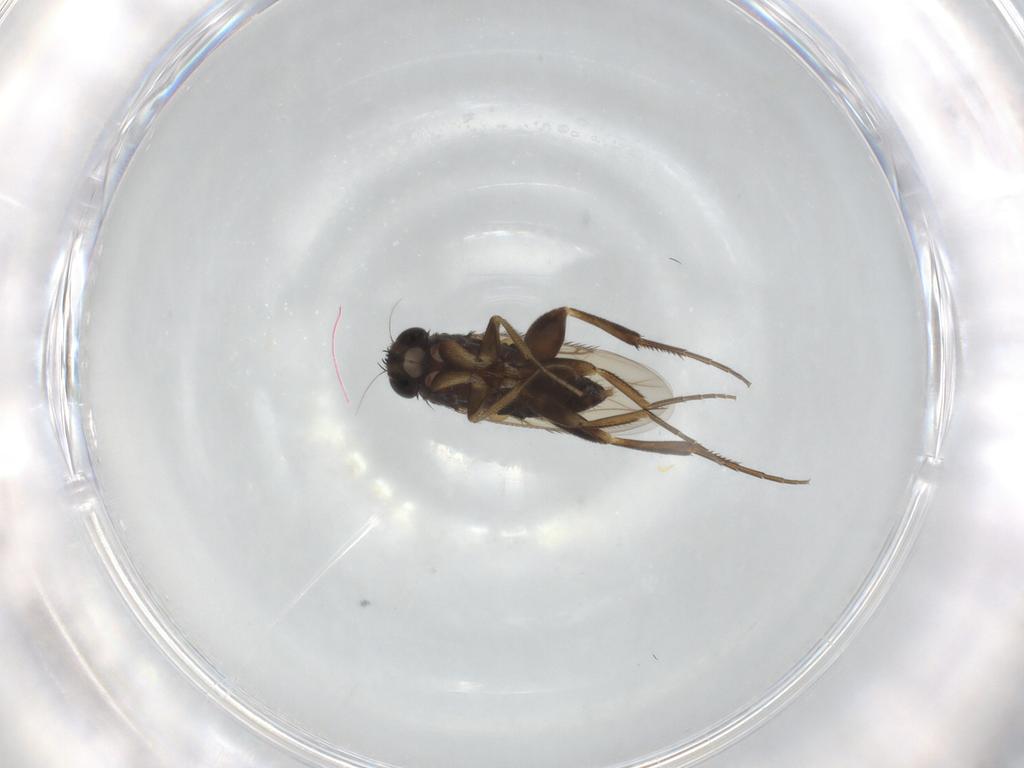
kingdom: Animalia
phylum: Arthropoda
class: Insecta
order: Diptera
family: Phoridae
